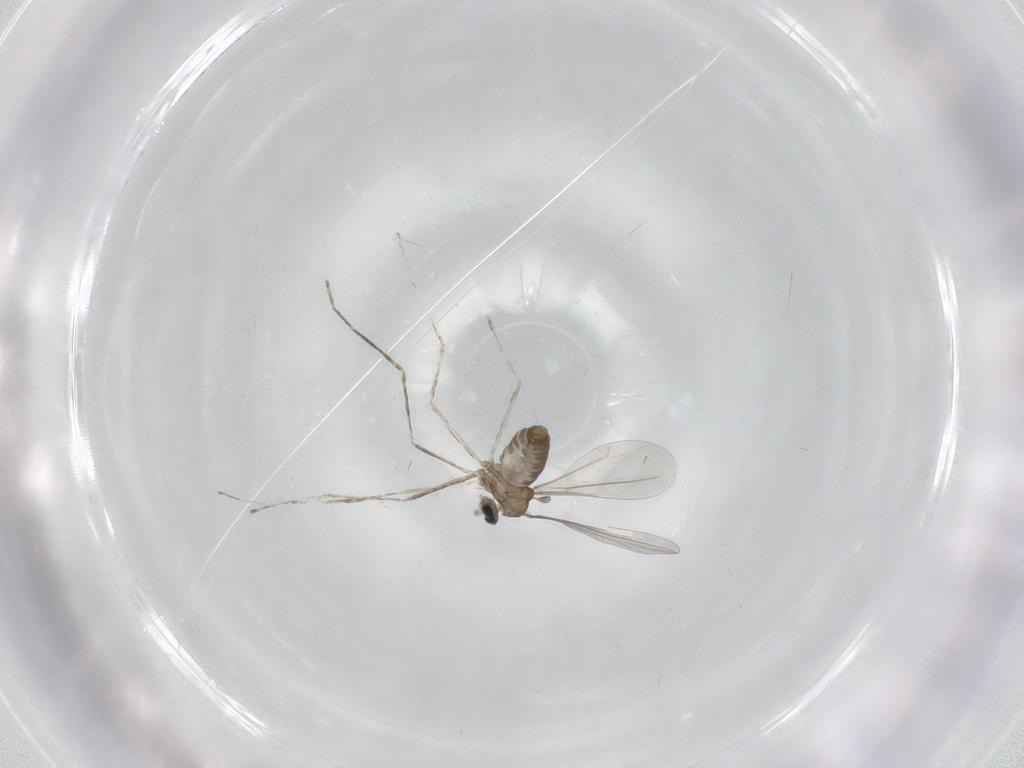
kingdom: Animalia
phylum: Arthropoda
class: Insecta
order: Diptera
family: Cecidomyiidae
